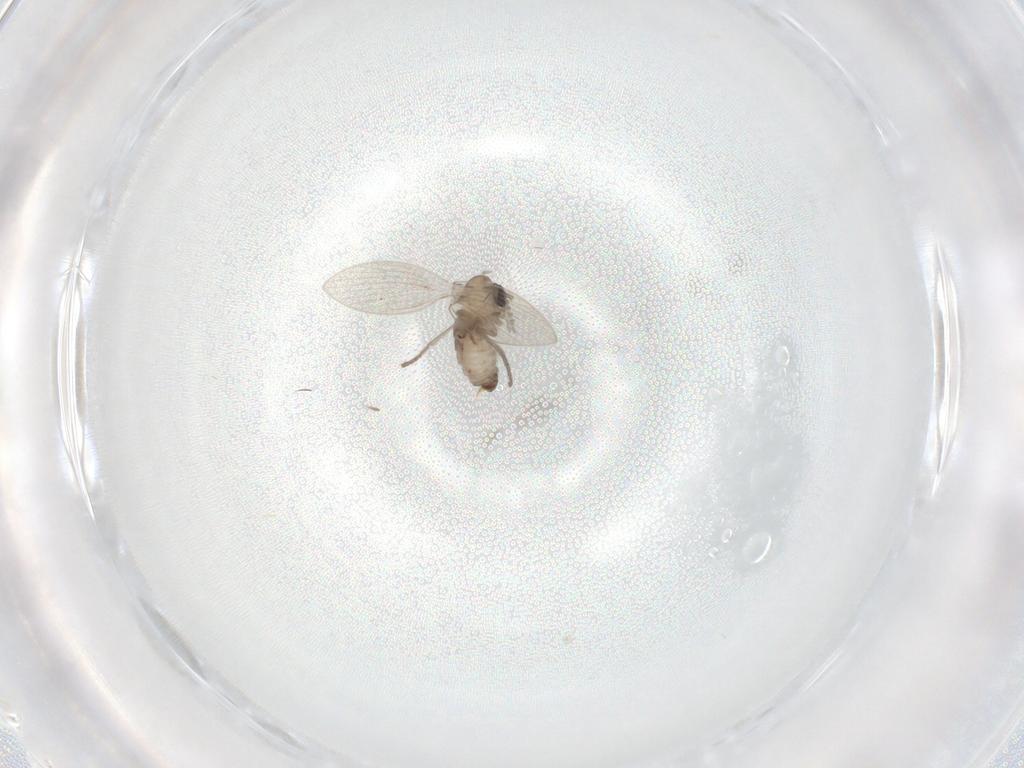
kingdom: Animalia
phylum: Arthropoda
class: Insecta
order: Diptera
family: Psychodidae
